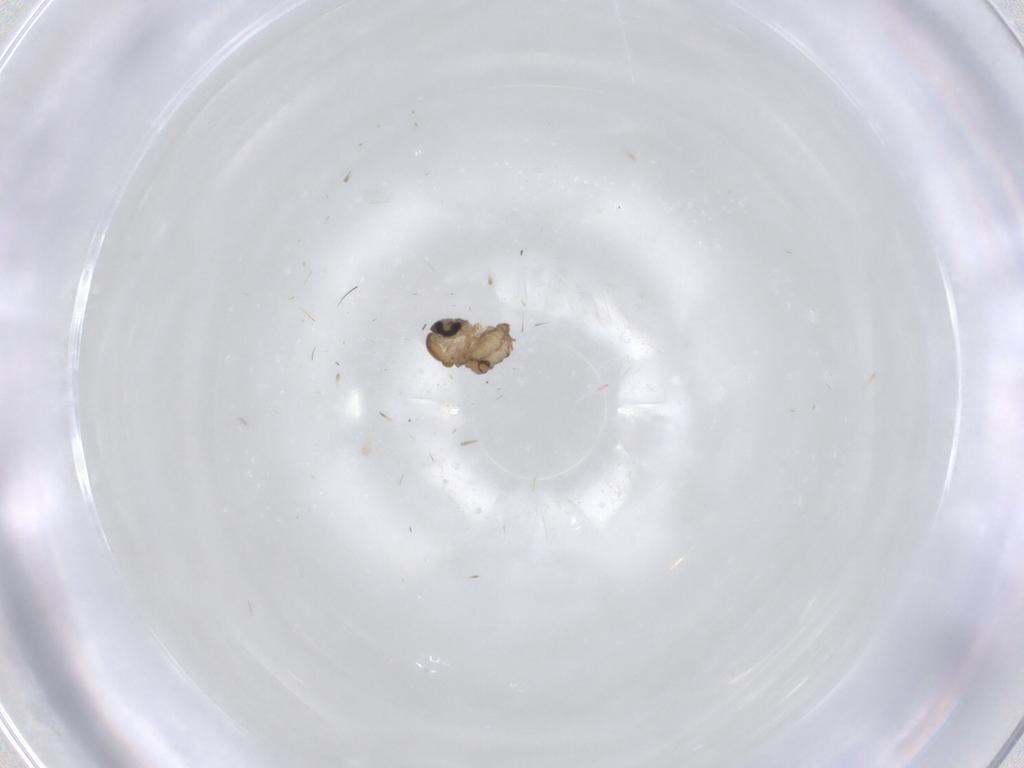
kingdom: Animalia
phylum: Arthropoda
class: Insecta
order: Diptera
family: Psychodidae
